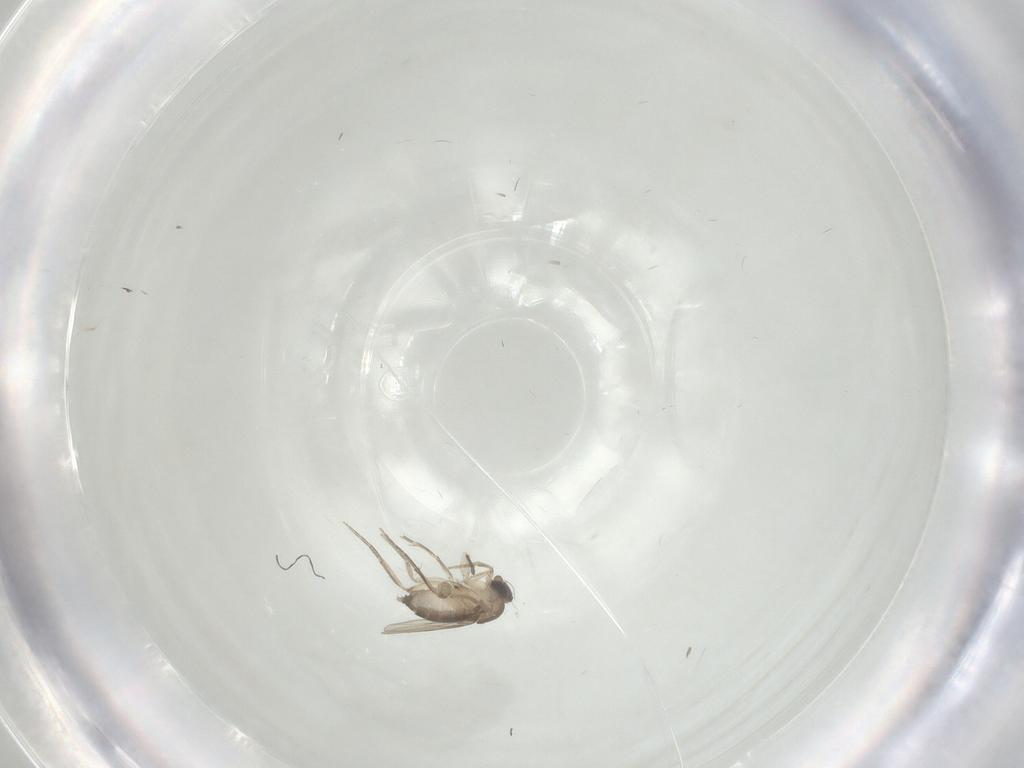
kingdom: Animalia
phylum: Arthropoda
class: Insecta
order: Diptera
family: Phoridae
